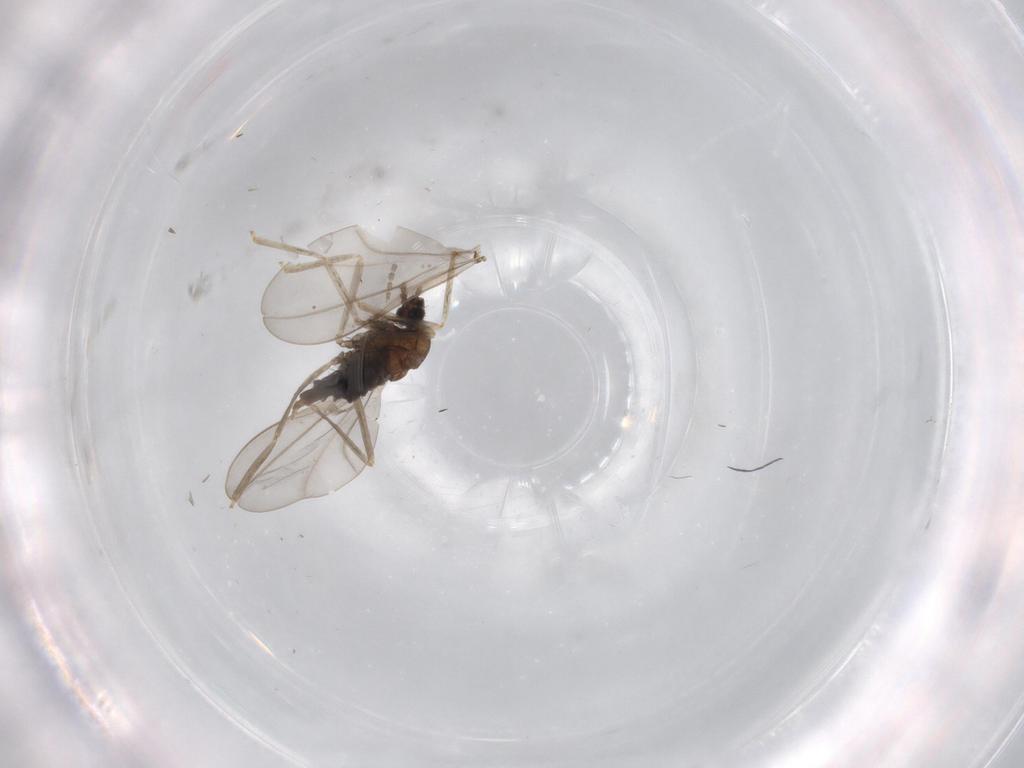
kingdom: Animalia
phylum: Arthropoda
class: Insecta
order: Diptera
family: Cecidomyiidae
